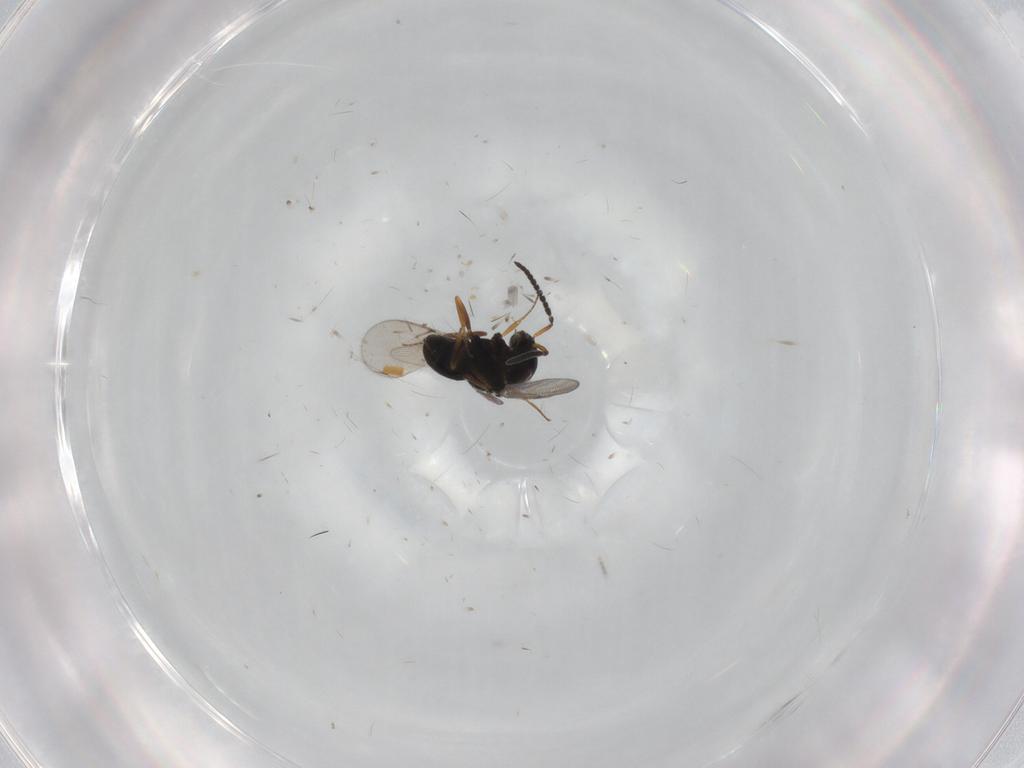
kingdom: Animalia
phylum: Arthropoda
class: Insecta
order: Hymenoptera
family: Scelionidae
